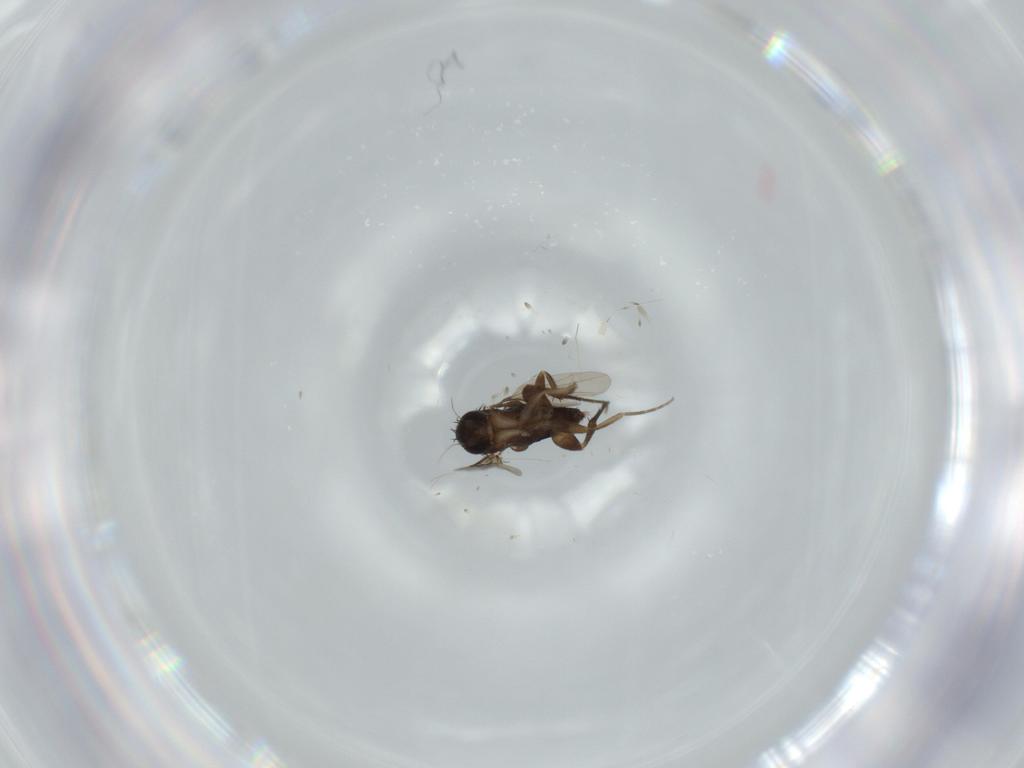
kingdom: Animalia
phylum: Arthropoda
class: Insecta
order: Diptera
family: Phoridae
